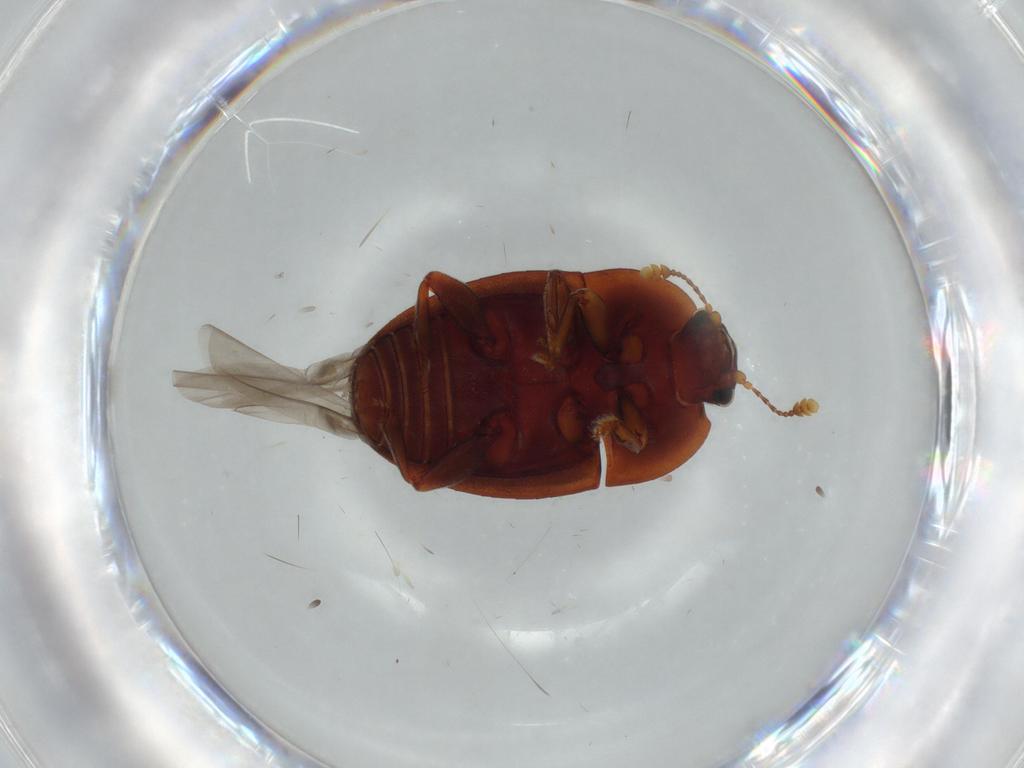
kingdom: Animalia
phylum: Arthropoda
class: Insecta
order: Coleoptera
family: Nitidulidae
